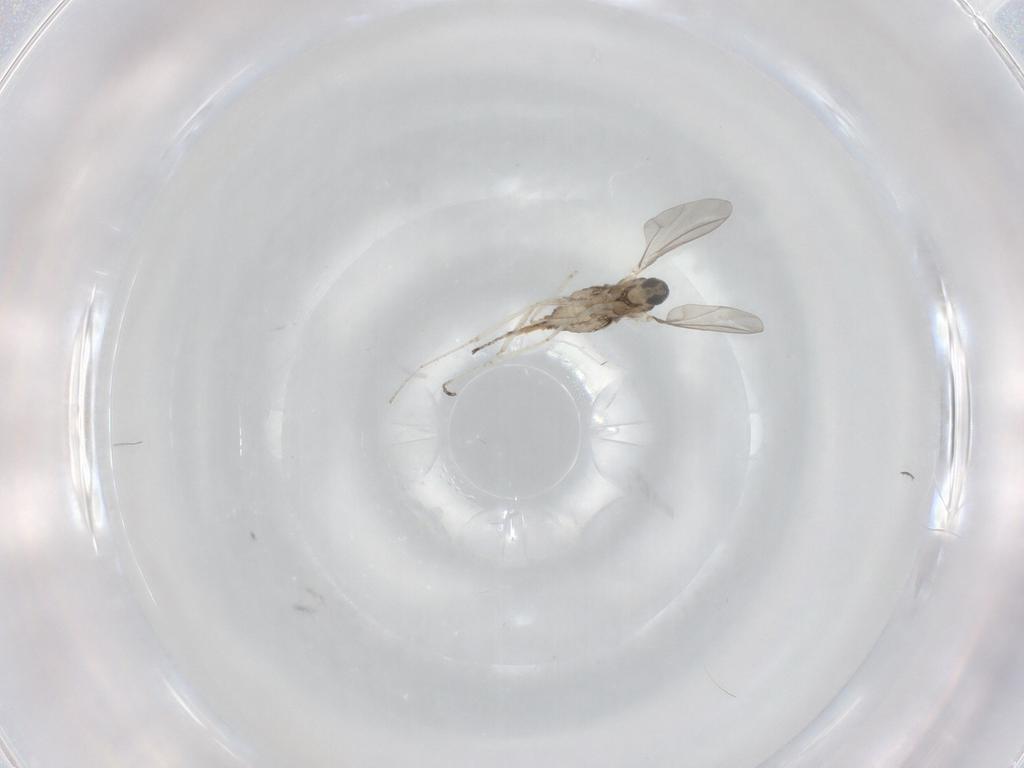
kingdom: Animalia
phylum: Arthropoda
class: Insecta
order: Diptera
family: Cecidomyiidae
